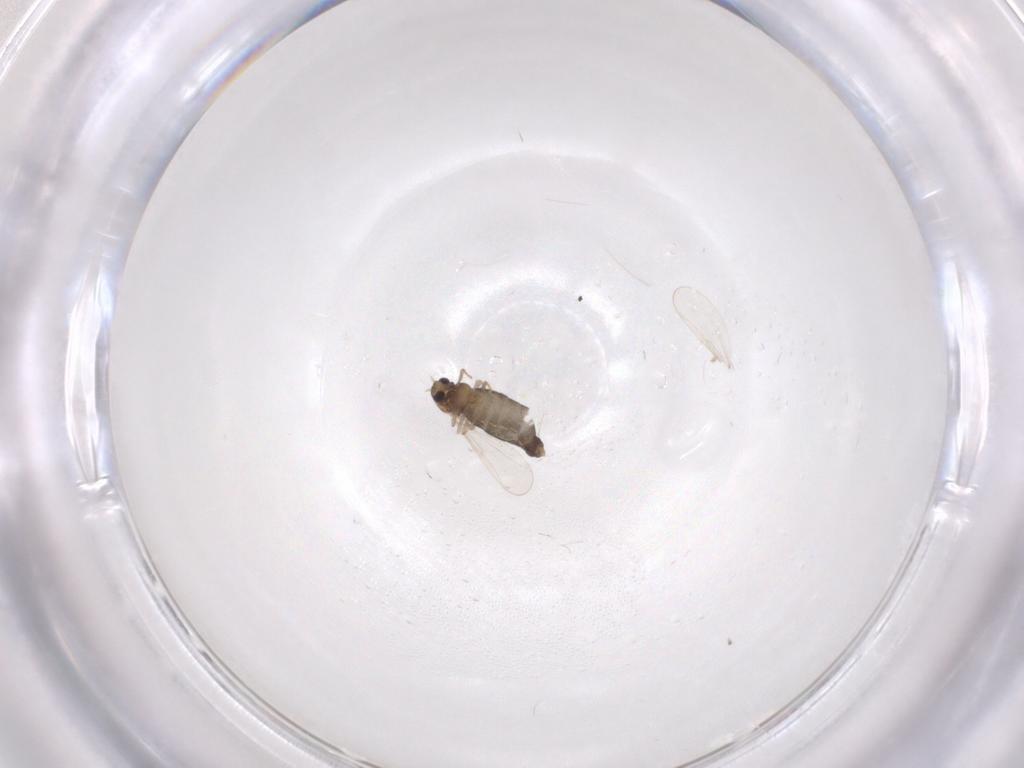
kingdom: Animalia
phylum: Arthropoda
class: Insecta
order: Diptera
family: Chironomidae
